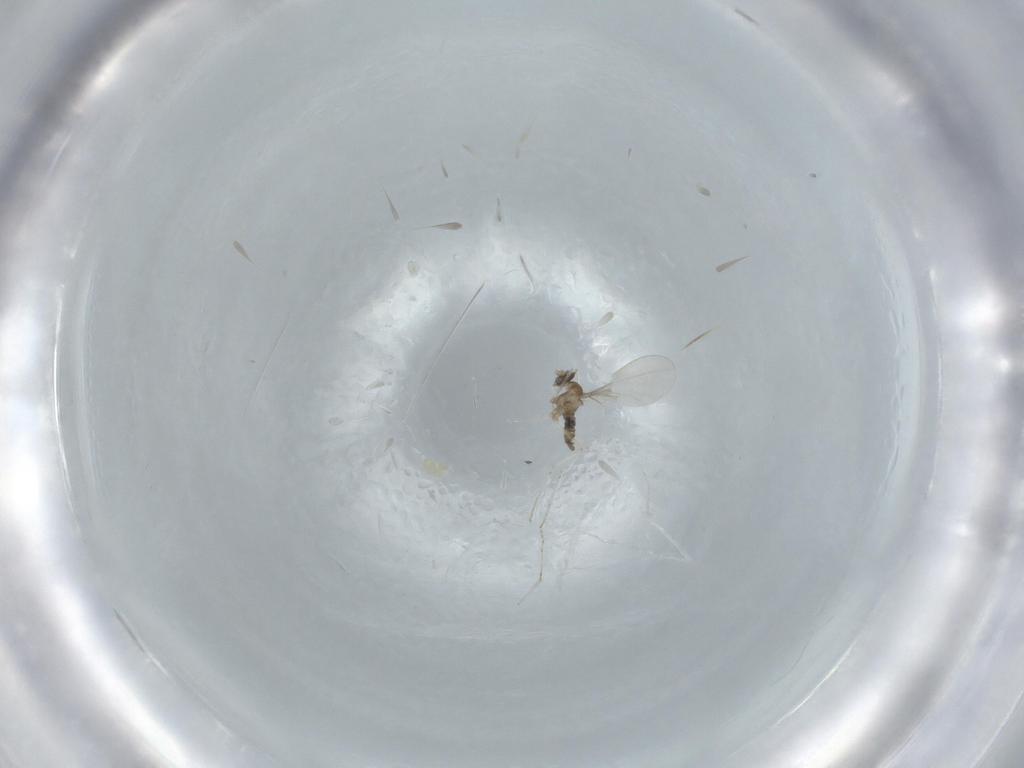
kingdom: Animalia
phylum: Arthropoda
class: Insecta
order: Diptera
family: Cecidomyiidae
